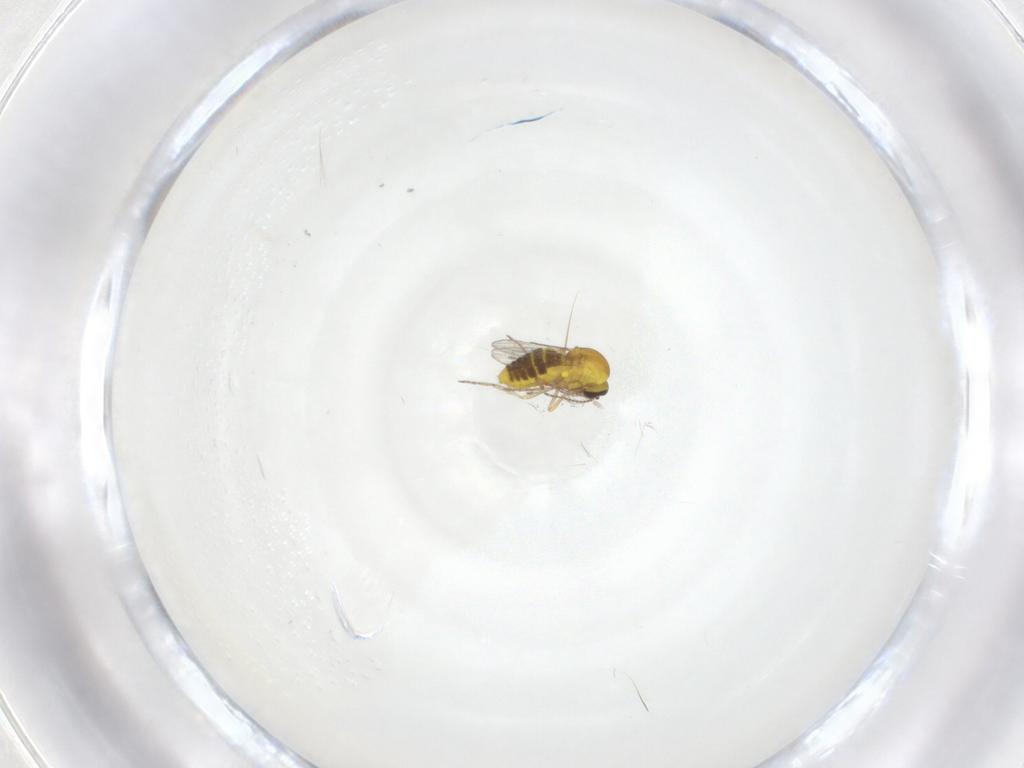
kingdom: Animalia
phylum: Arthropoda
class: Insecta
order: Diptera
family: Ceratopogonidae
